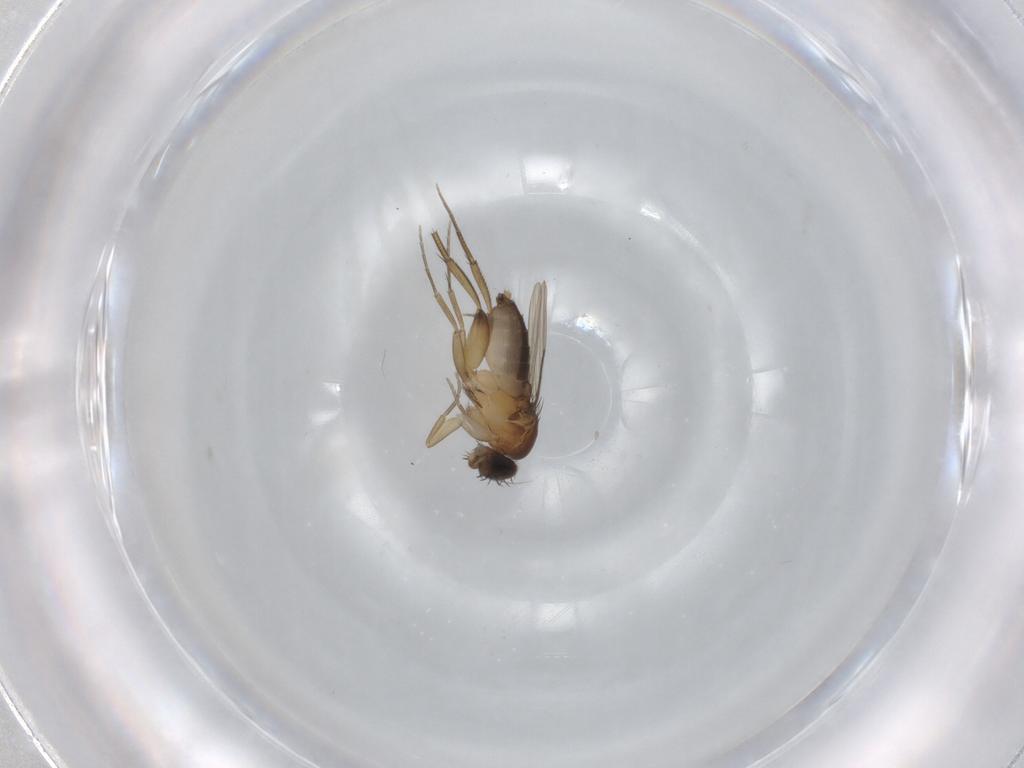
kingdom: Animalia
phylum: Arthropoda
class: Insecta
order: Diptera
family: Phoridae
